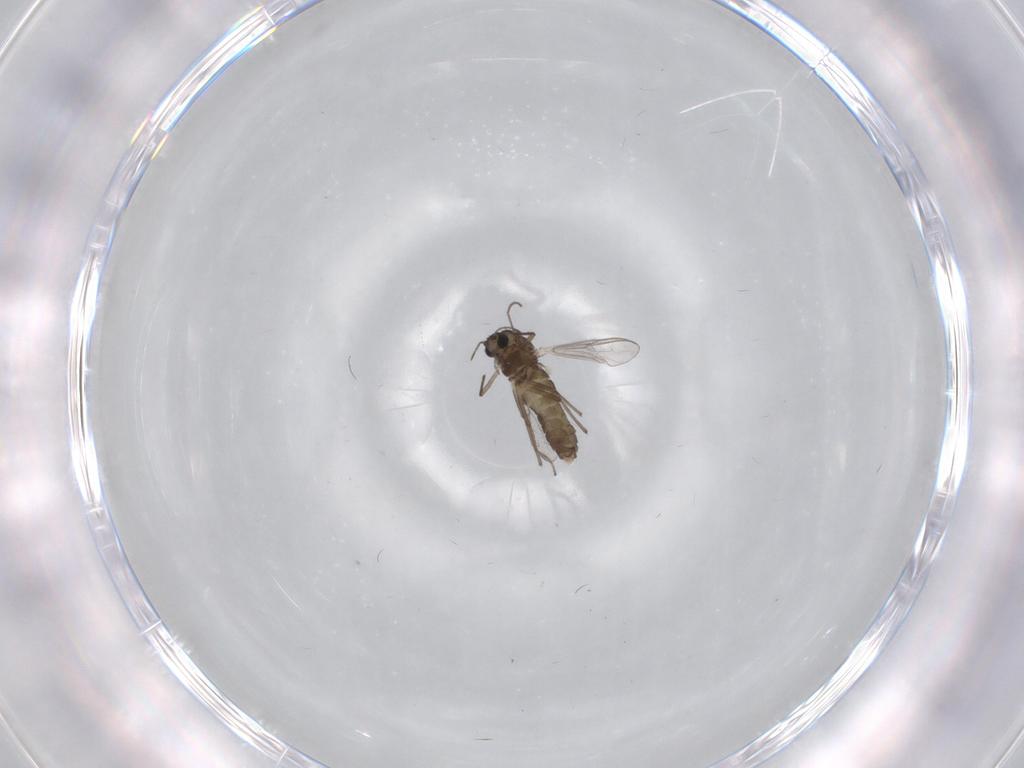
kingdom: Animalia
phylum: Arthropoda
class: Insecta
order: Diptera
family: Chironomidae
